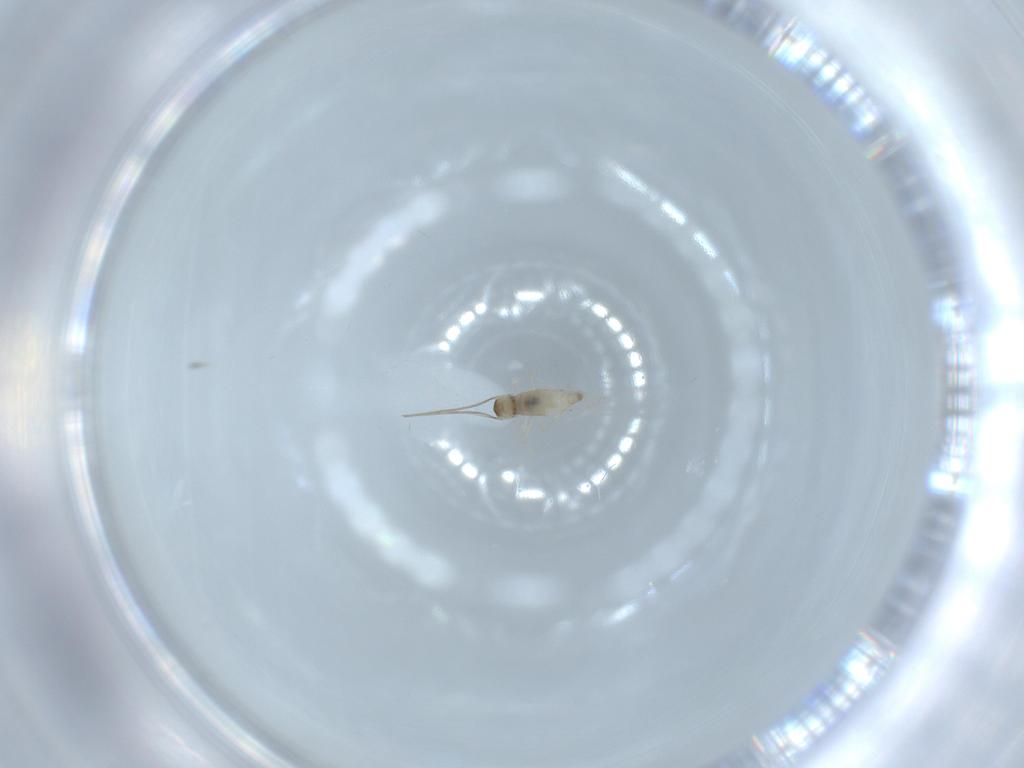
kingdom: Animalia
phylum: Arthropoda
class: Insecta
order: Diptera
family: Cecidomyiidae
